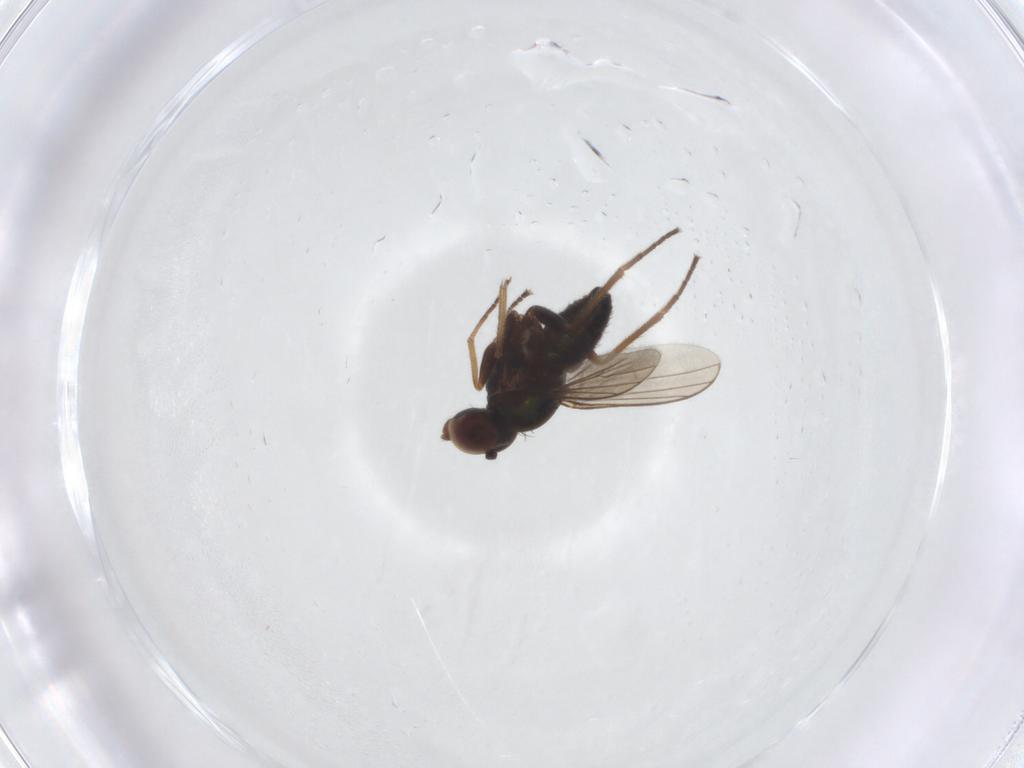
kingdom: Animalia
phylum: Arthropoda
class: Insecta
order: Diptera
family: Dolichopodidae
